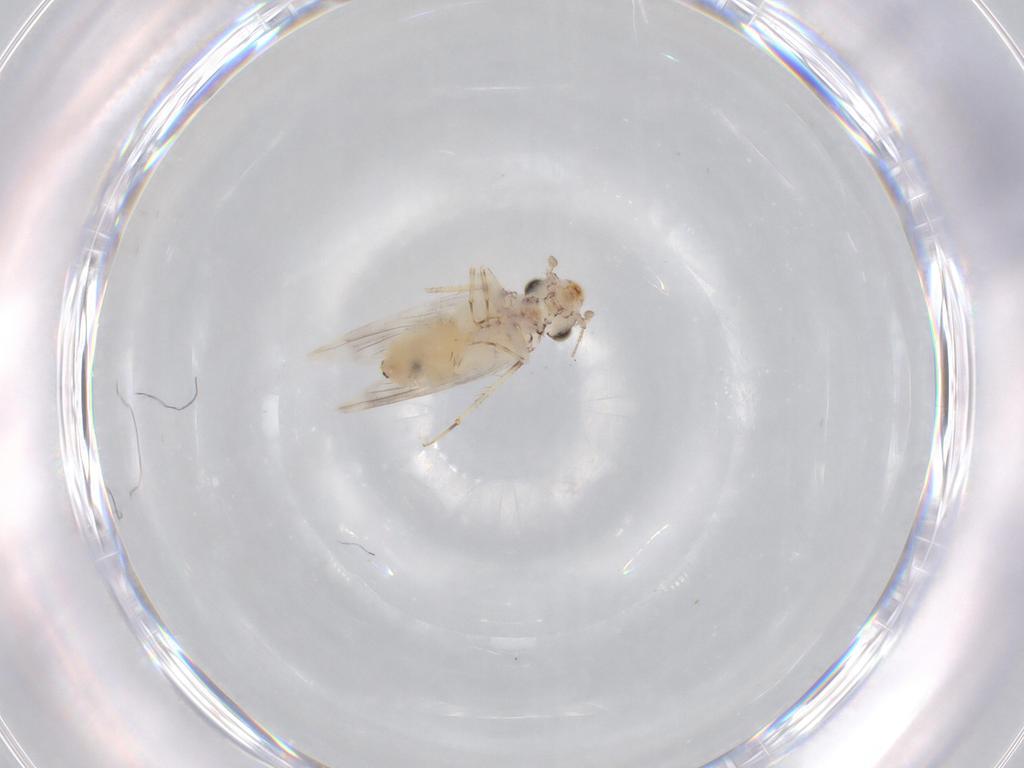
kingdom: Animalia
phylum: Arthropoda
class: Insecta
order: Psocodea
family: Lepidopsocidae
